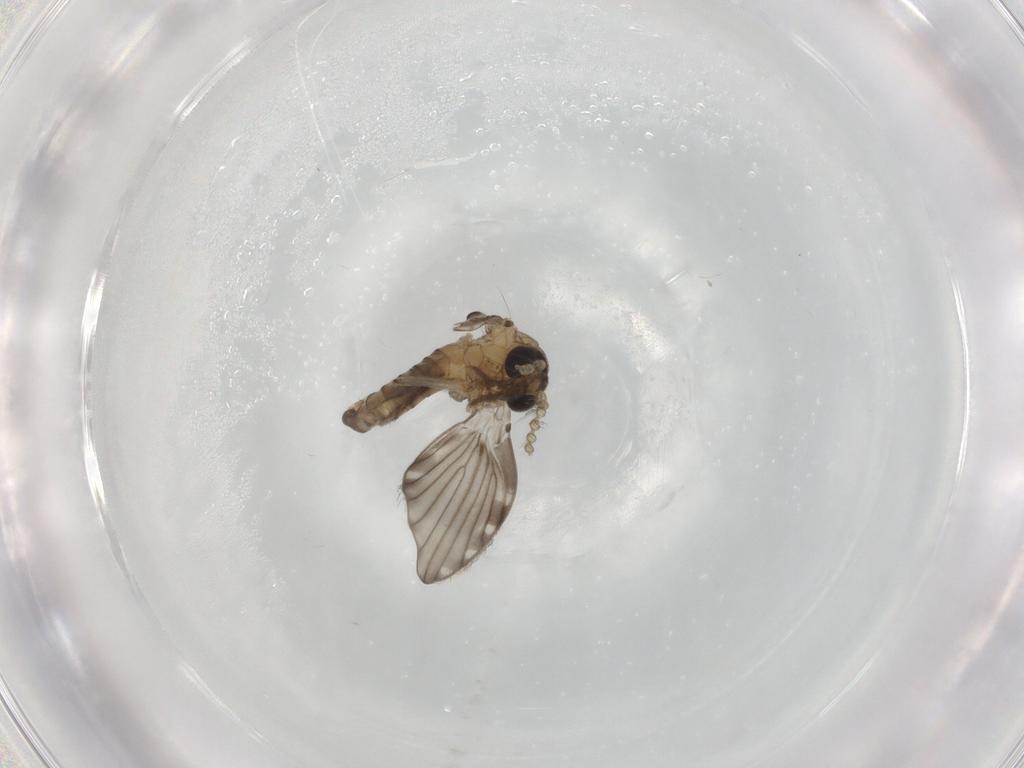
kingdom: Animalia
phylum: Arthropoda
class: Insecta
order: Diptera
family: Psychodidae
